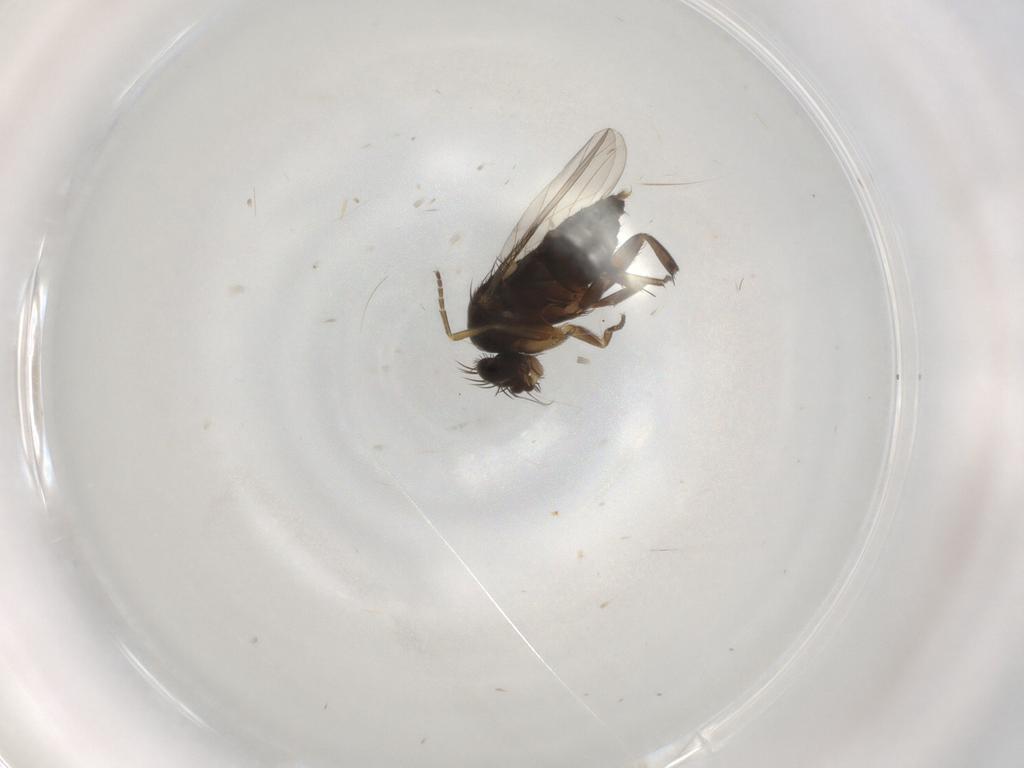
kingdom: Animalia
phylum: Arthropoda
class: Insecta
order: Diptera
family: Phoridae
